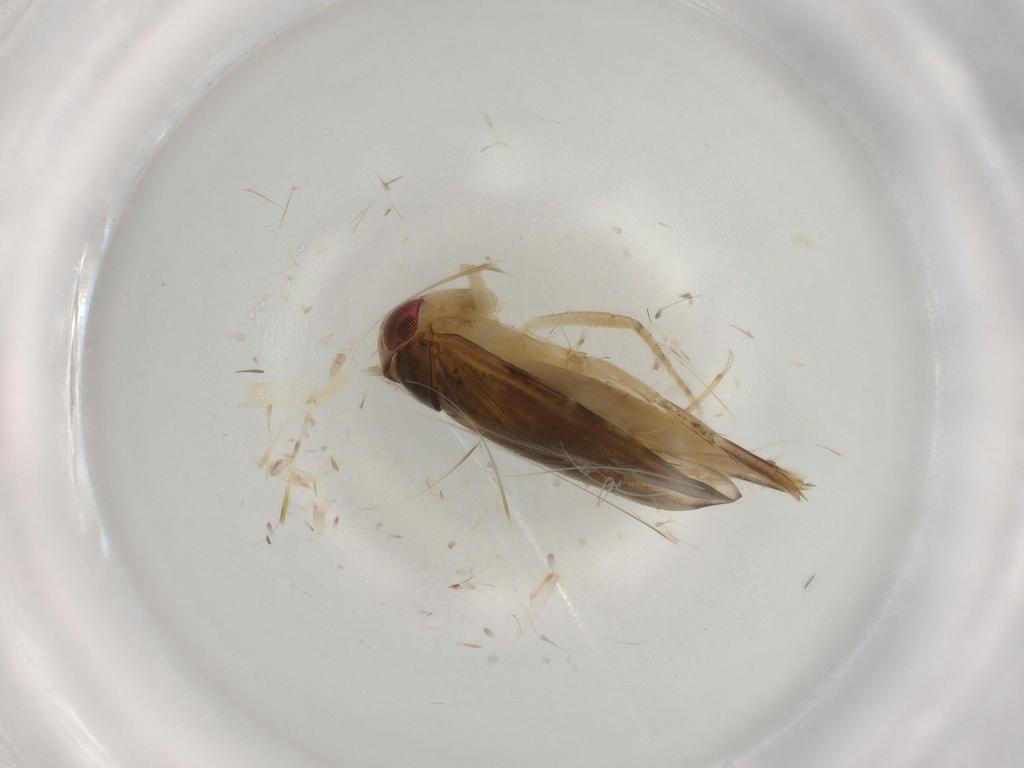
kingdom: Animalia
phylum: Arthropoda
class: Insecta
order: Hemiptera
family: Corixidae
